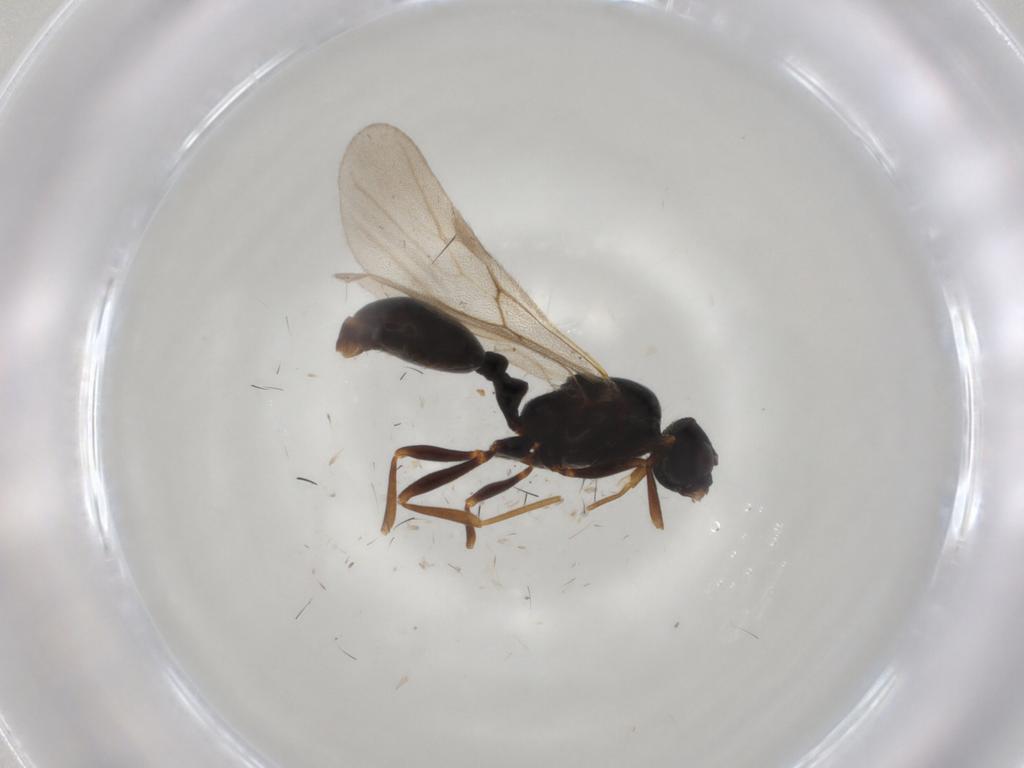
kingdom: Animalia
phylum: Arthropoda
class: Insecta
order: Hymenoptera
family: Formicidae
